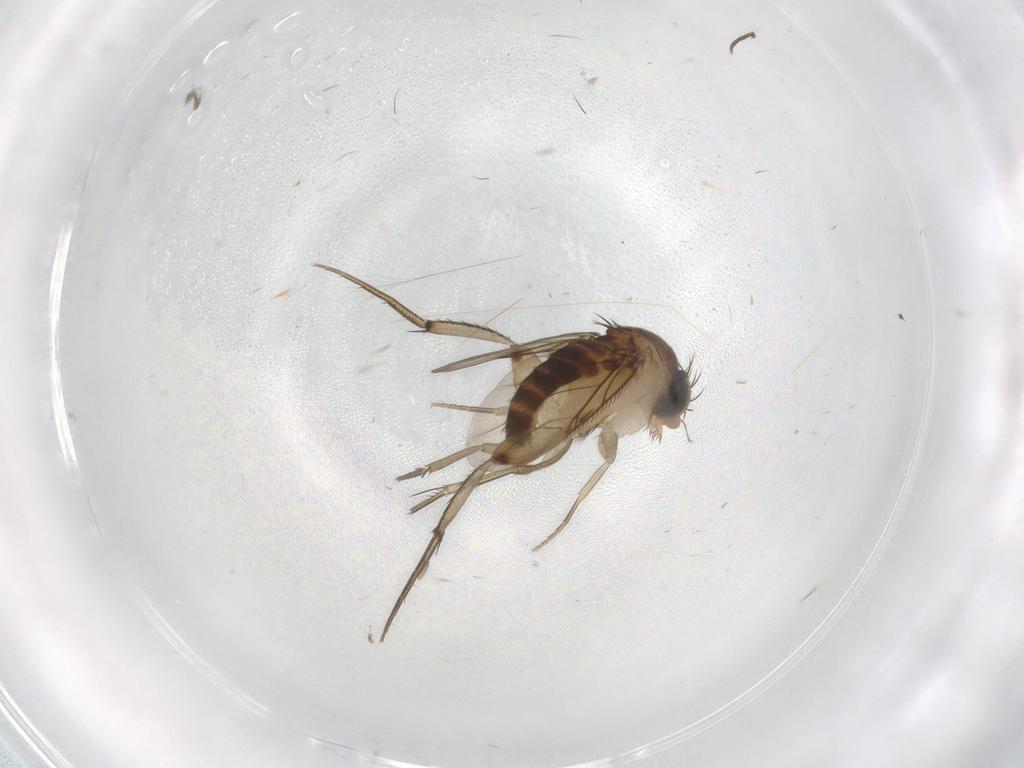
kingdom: Animalia
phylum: Arthropoda
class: Insecta
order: Diptera
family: Phoridae
